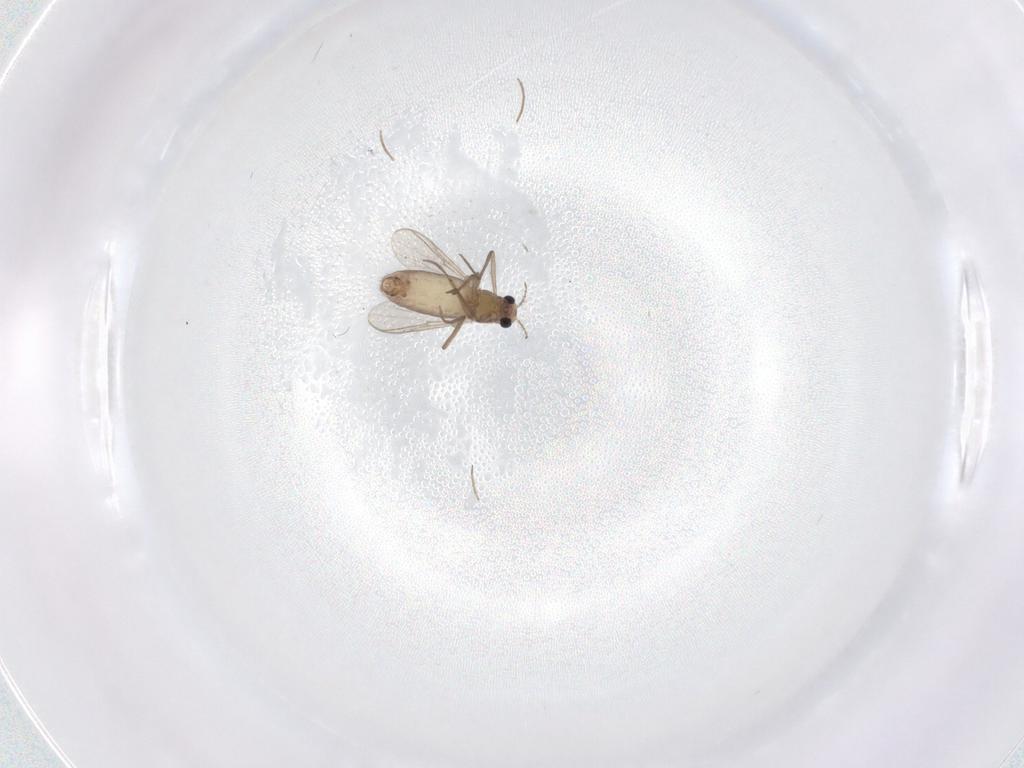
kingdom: Animalia
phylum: Arthropoda
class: Insecta
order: Diptera
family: Chironomidae
